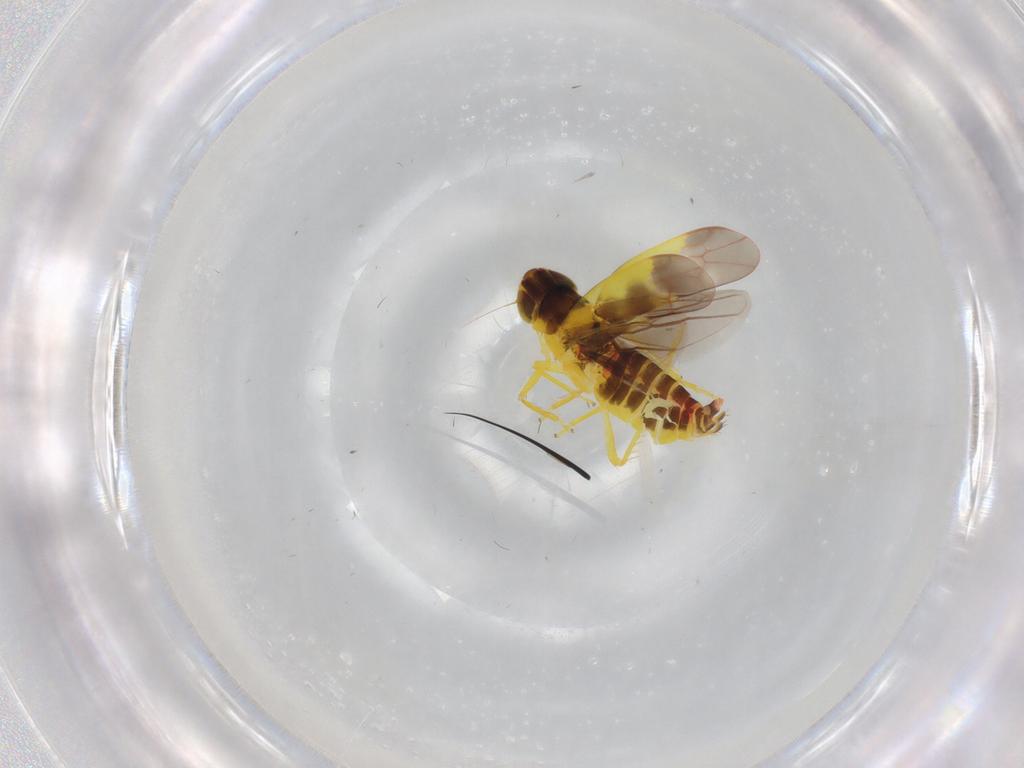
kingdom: Animalia
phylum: Arthropoda
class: Insecta
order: Hemiptera
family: Cicadellidae
